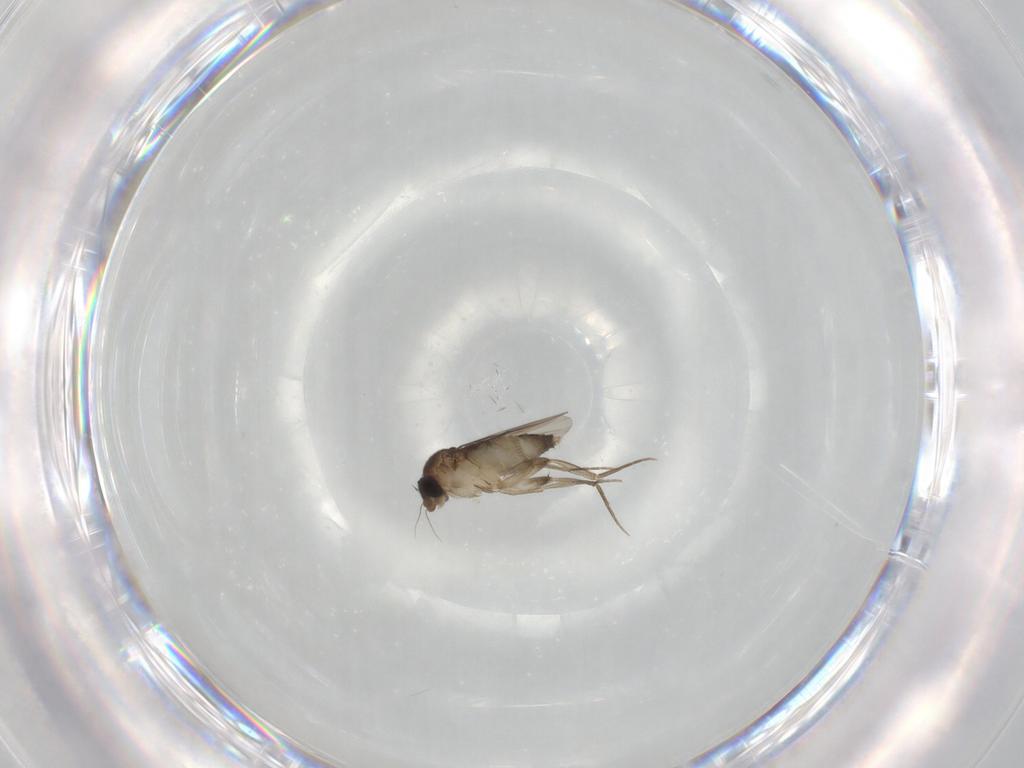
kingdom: Animalia
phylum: Arthropoda
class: Insecta
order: Diptera
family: Phoridae
